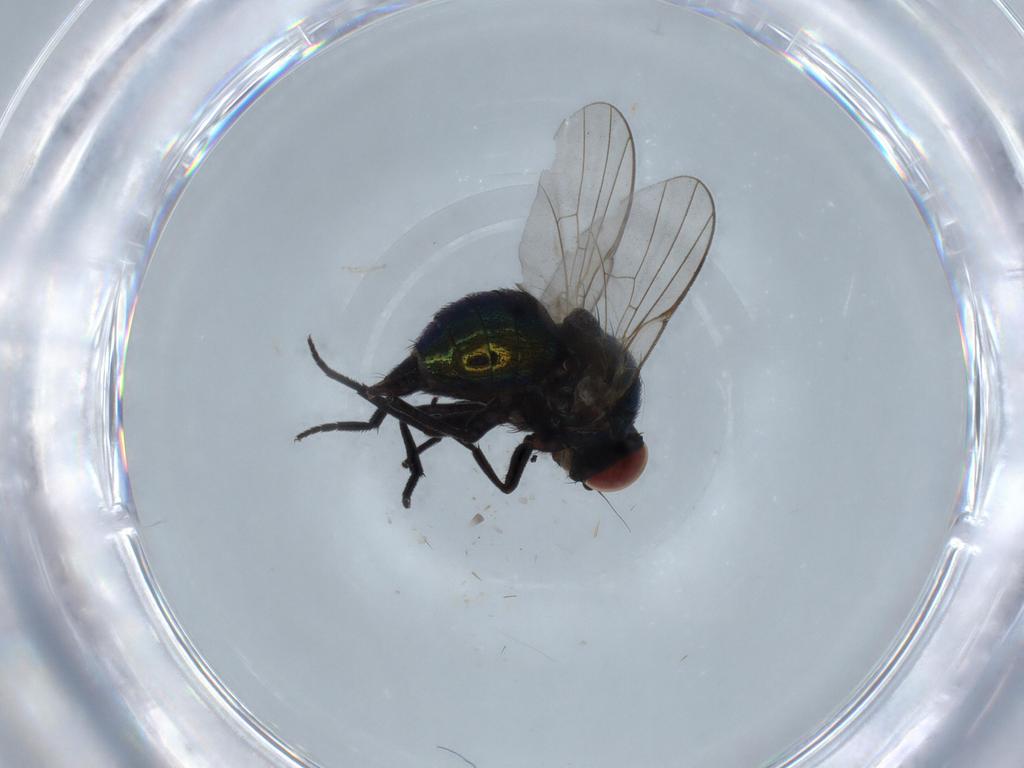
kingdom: Animalia
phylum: Arthropoda
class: Insecta
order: Diptera
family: Agromyzidae
